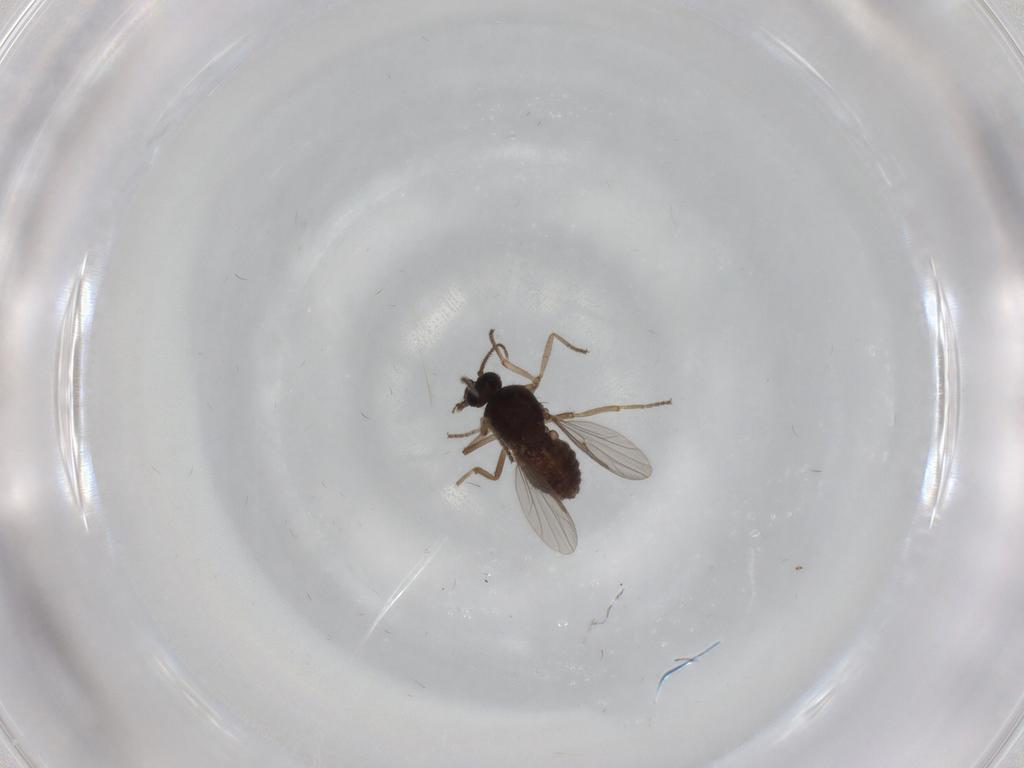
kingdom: Animalia
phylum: Arthropoda
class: Insecta
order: Diptera
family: Ceratopogonidae
